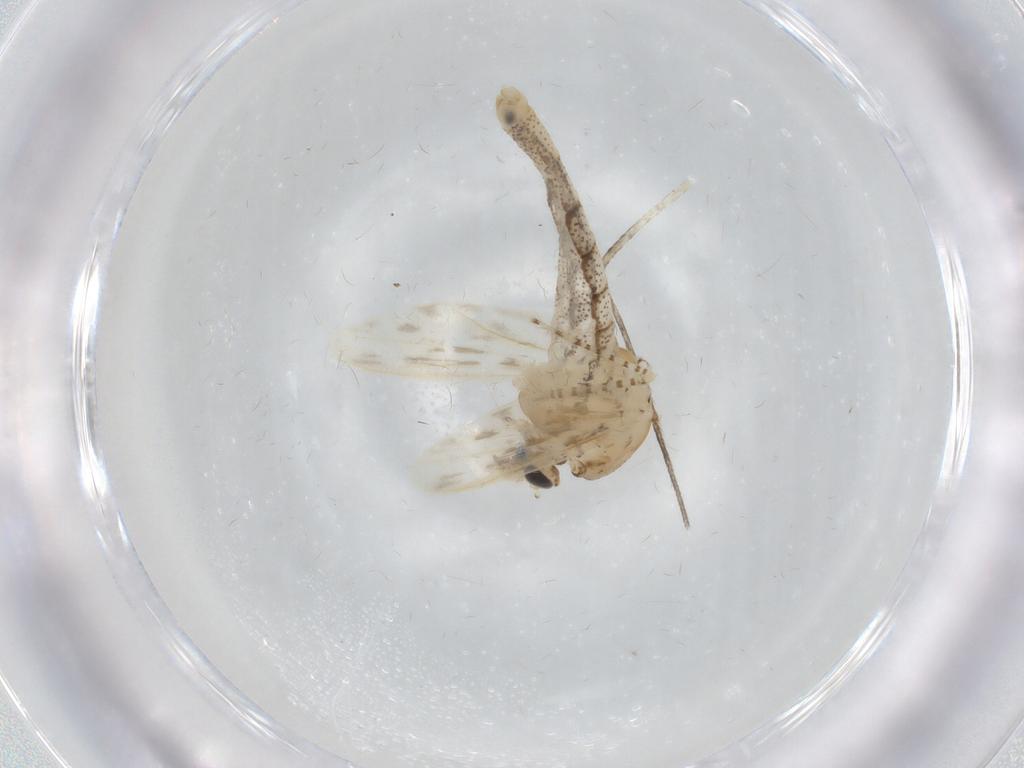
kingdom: Animalia
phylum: Arthropoda
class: Insecta
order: Diptera
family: Chaoboridae
